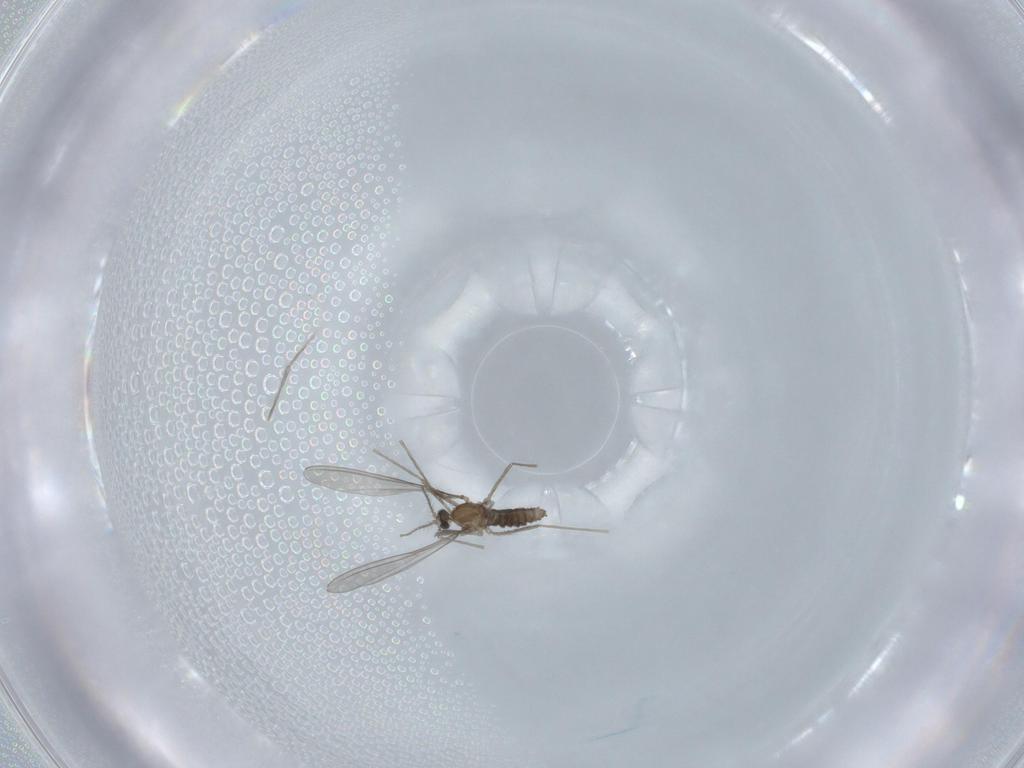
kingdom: Animalia
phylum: Arthropoda
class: Insecta
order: Diptera
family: Cecidomyiidae
